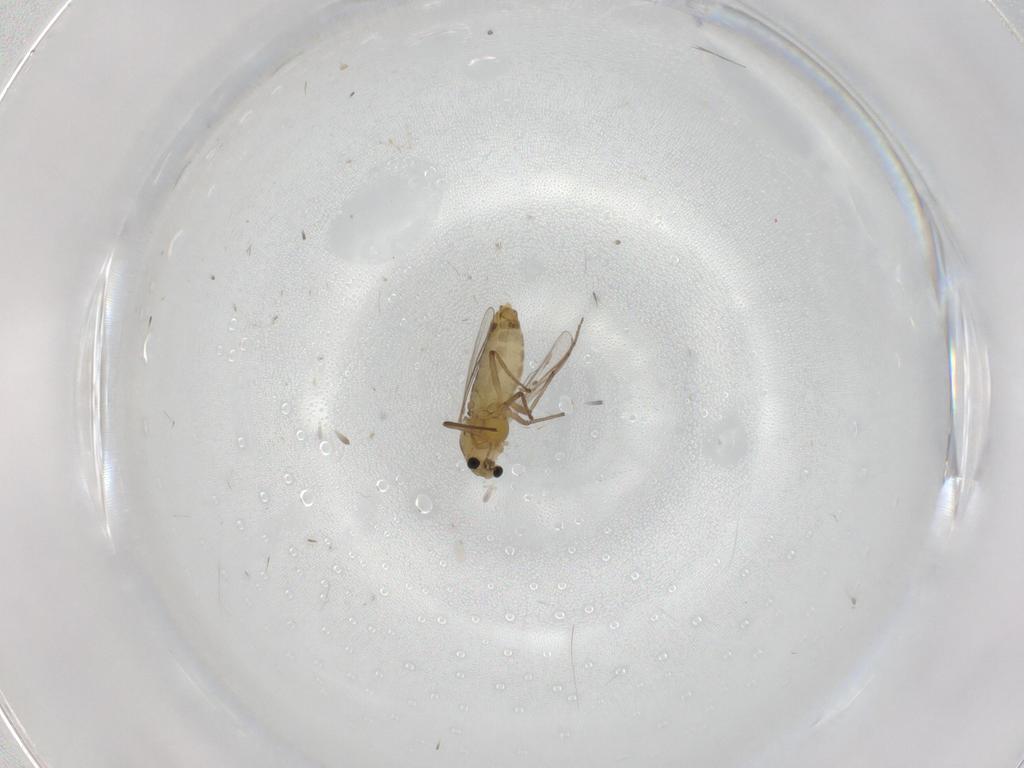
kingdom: Animalia
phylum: Arthropoda
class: Insecta
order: Diptera
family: Chironomidae
